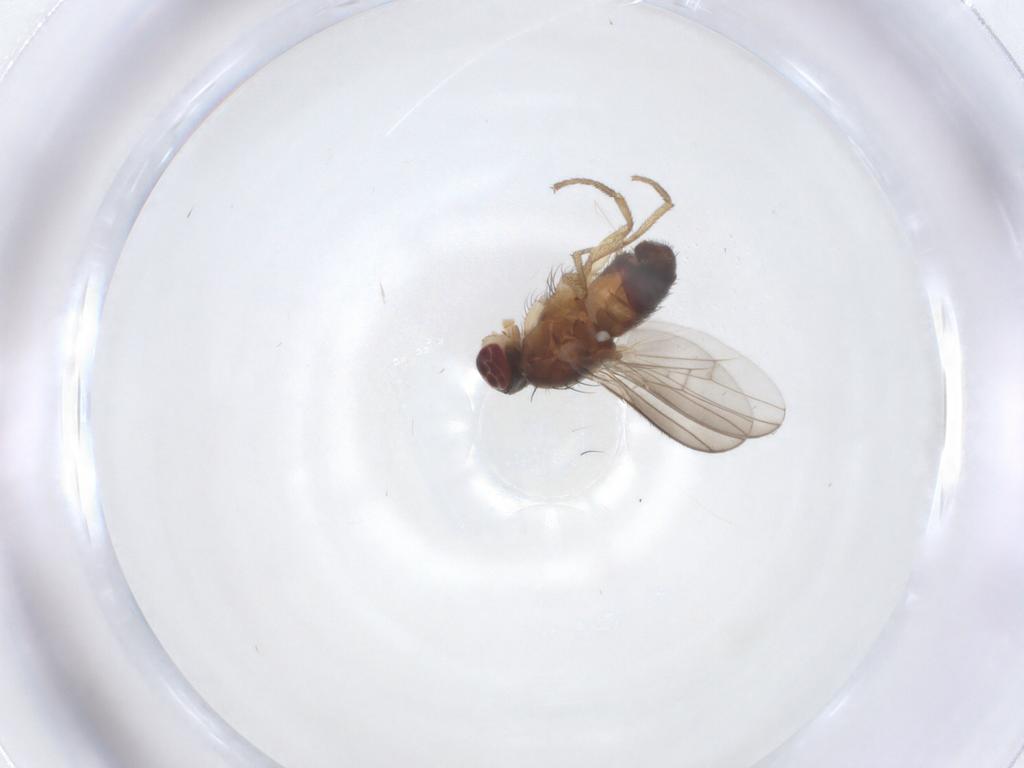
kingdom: Animalia
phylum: Arthropoda
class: Insecta
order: Diptera
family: Heleomyzidae
